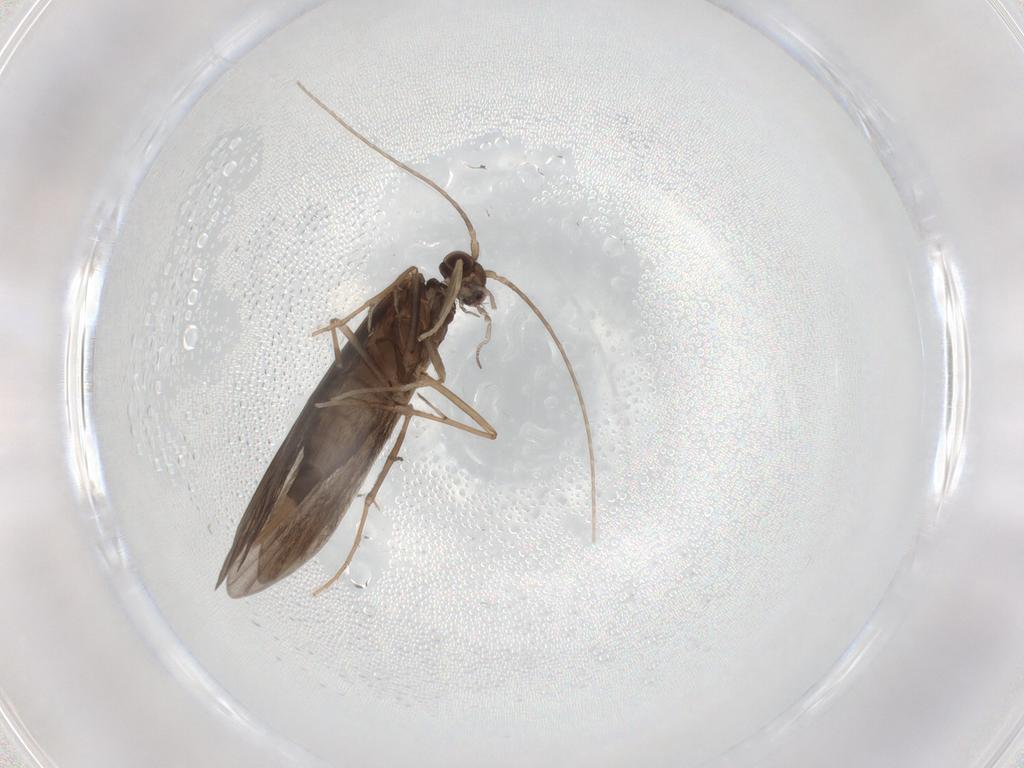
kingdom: Animalia
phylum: Arthropoda
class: Insecta
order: Trichoptera
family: Xiphocentronidae
